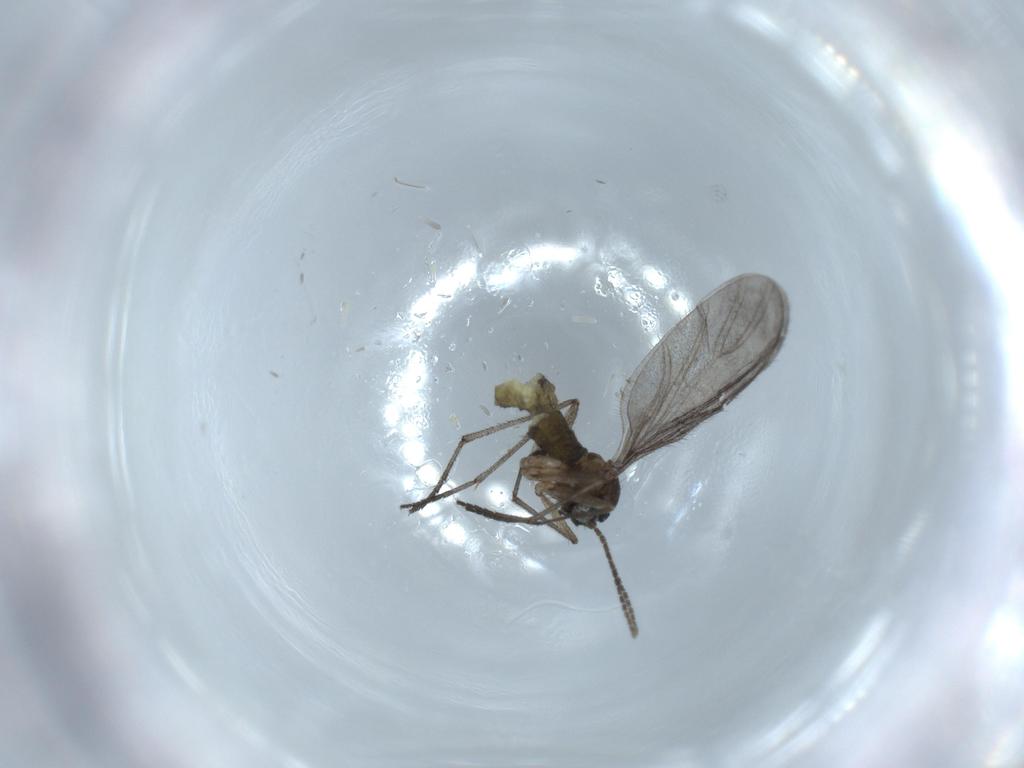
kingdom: Animalia
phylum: Arthropoda
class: Insecta
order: Diptera
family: Sciaridae
